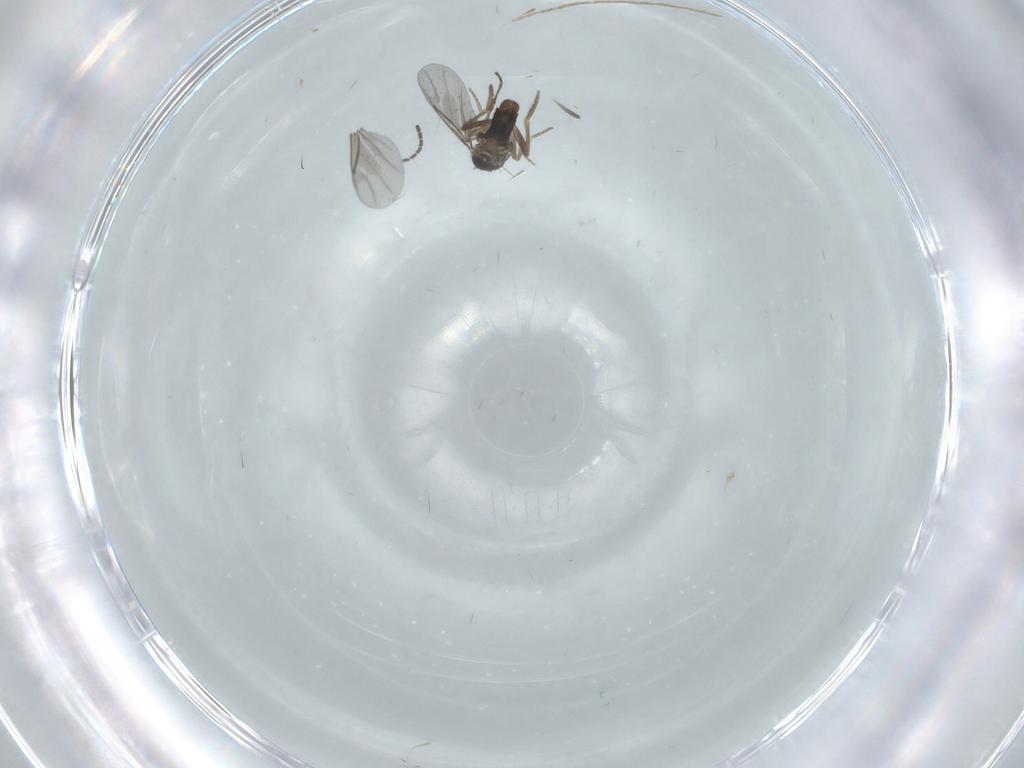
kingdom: Animalia
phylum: Arthropoda
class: Insecta
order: Diptera
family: Sciaridae
